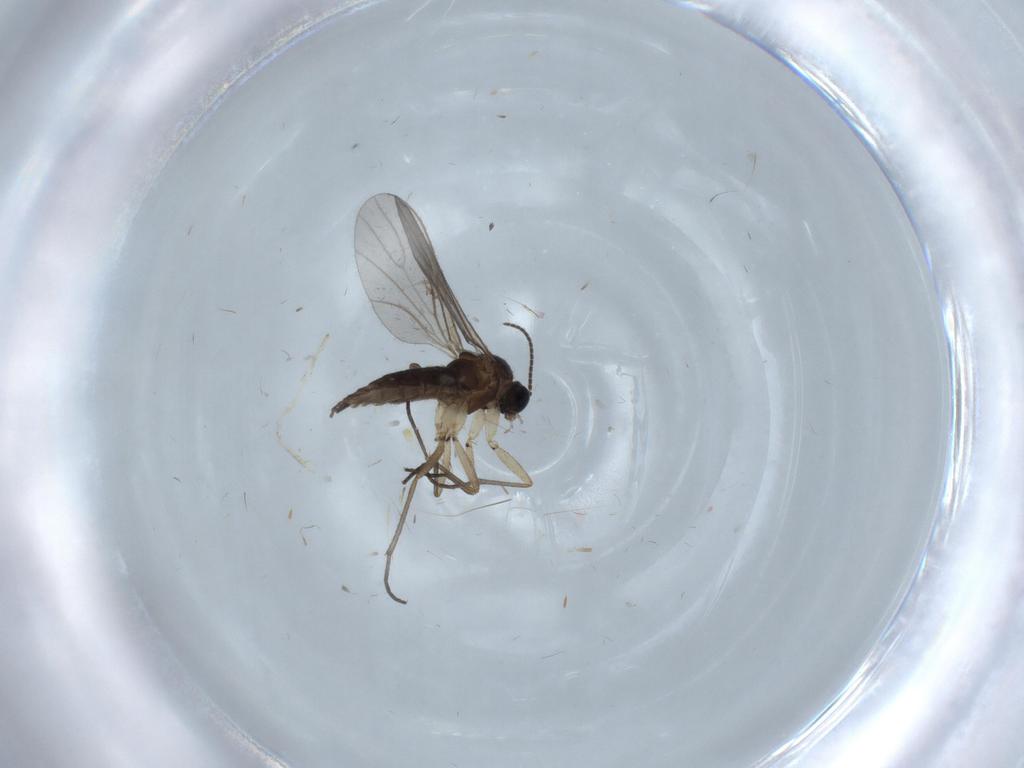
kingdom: Animalia
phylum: Arthropoda
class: Insecta
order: Diptera
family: Sciaridae
